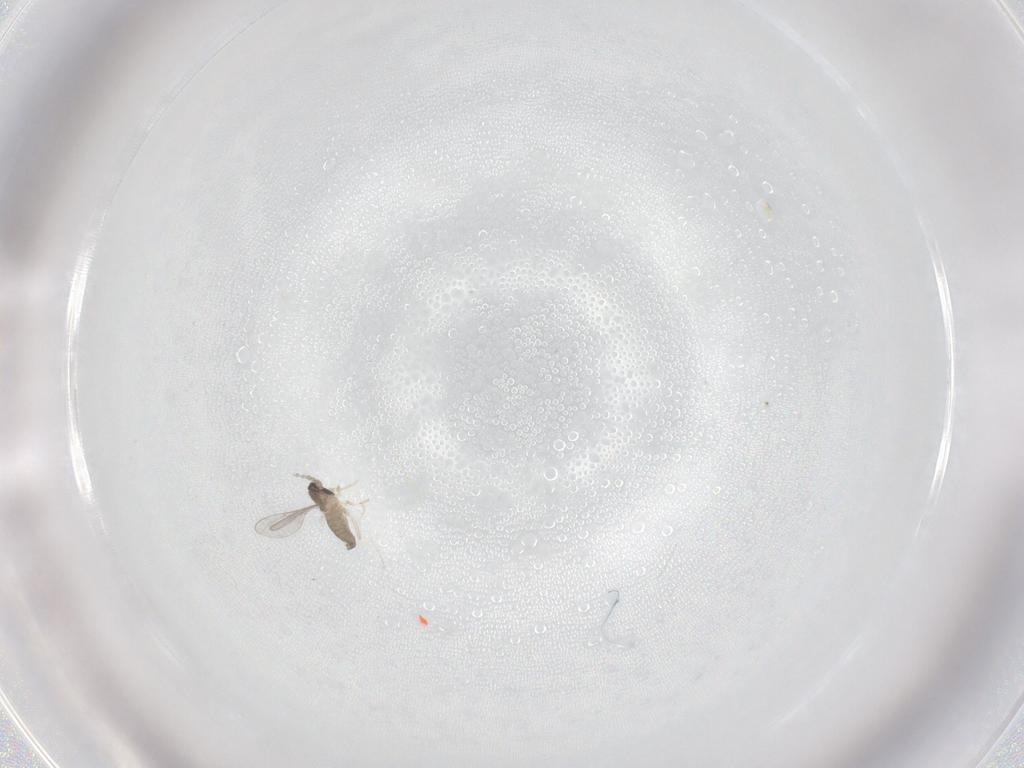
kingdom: Animalia
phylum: Arthropoda
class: Insecta
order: Diptera
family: Cecidomyiidae
